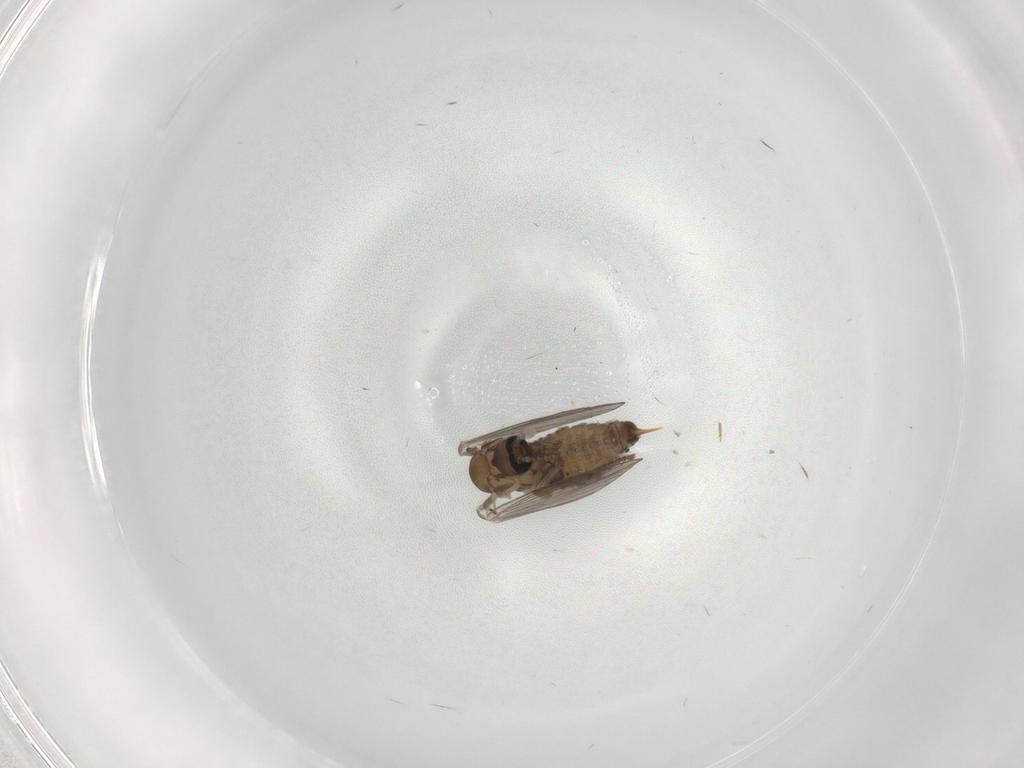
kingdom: Animalia
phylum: Arthropoda
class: Insecta
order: Diptera
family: Psychodidae
